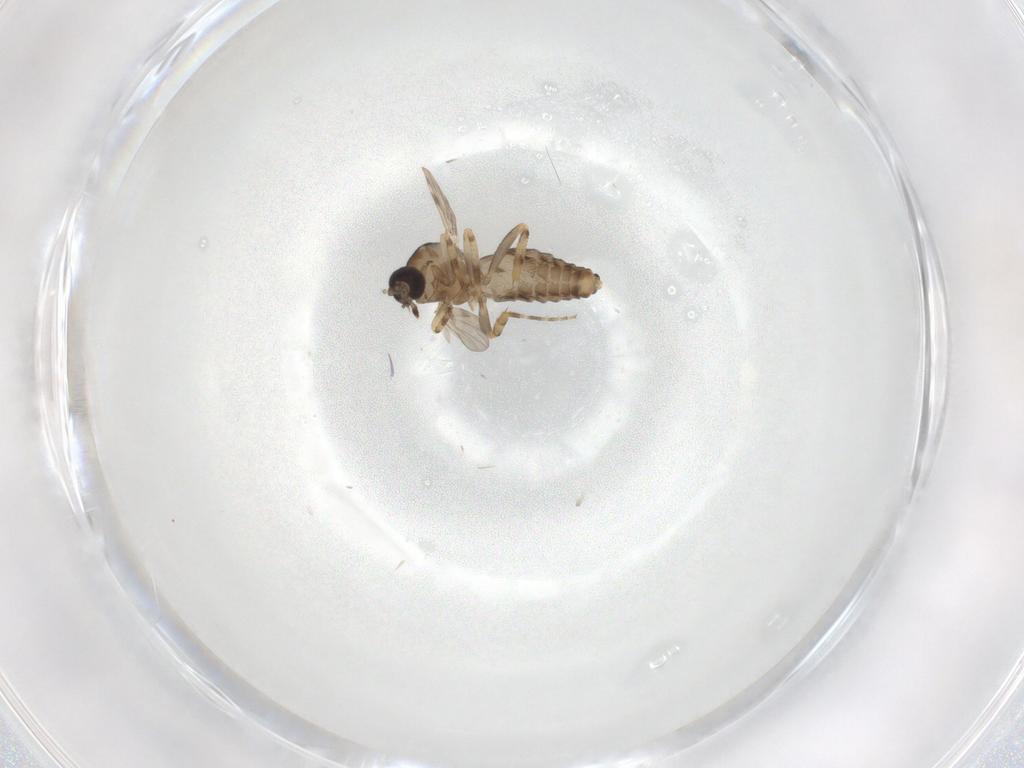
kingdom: Animalia
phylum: Arthropoda
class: Insecta
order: Diptera
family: Ceratopogonidae
